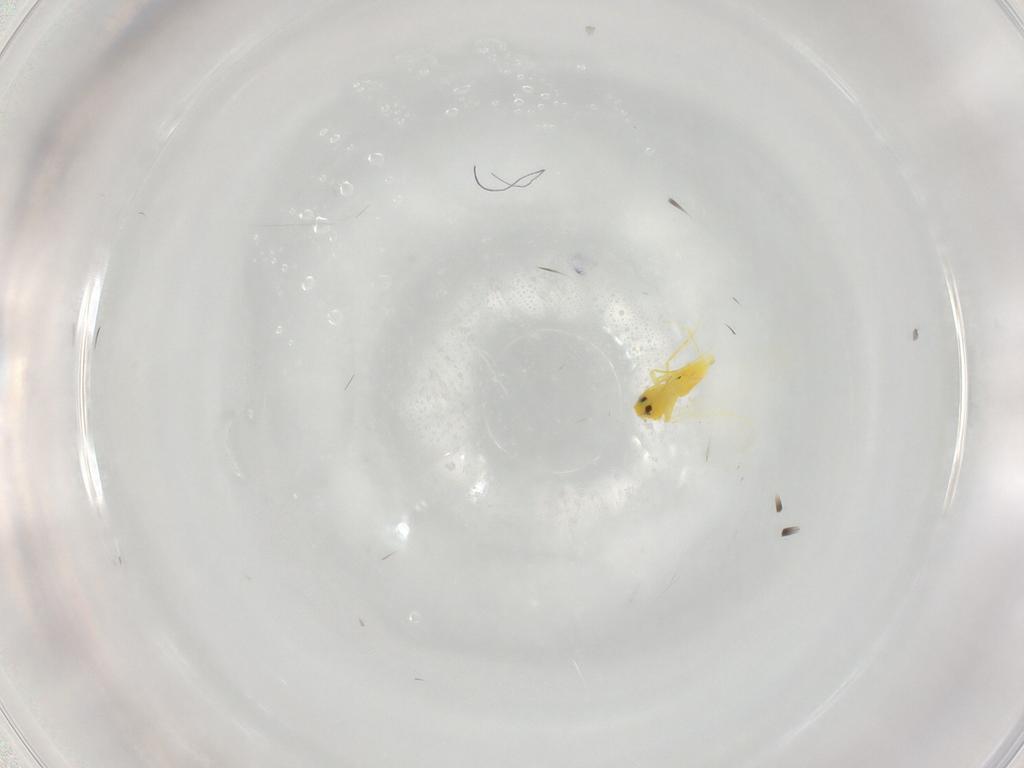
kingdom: Animalia
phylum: Arthropoda
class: Insecta
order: Hemiptera
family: Aleyrodidae
